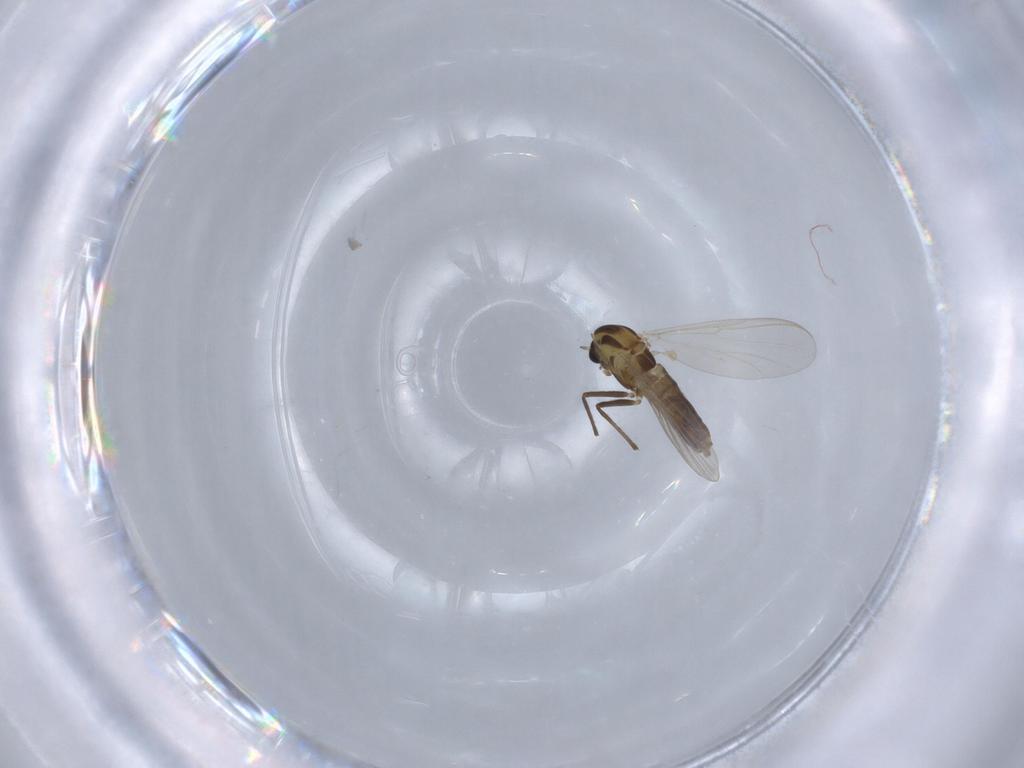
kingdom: Animalia
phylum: Arthropoda
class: Insecta
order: Diptera
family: Chironomidae
